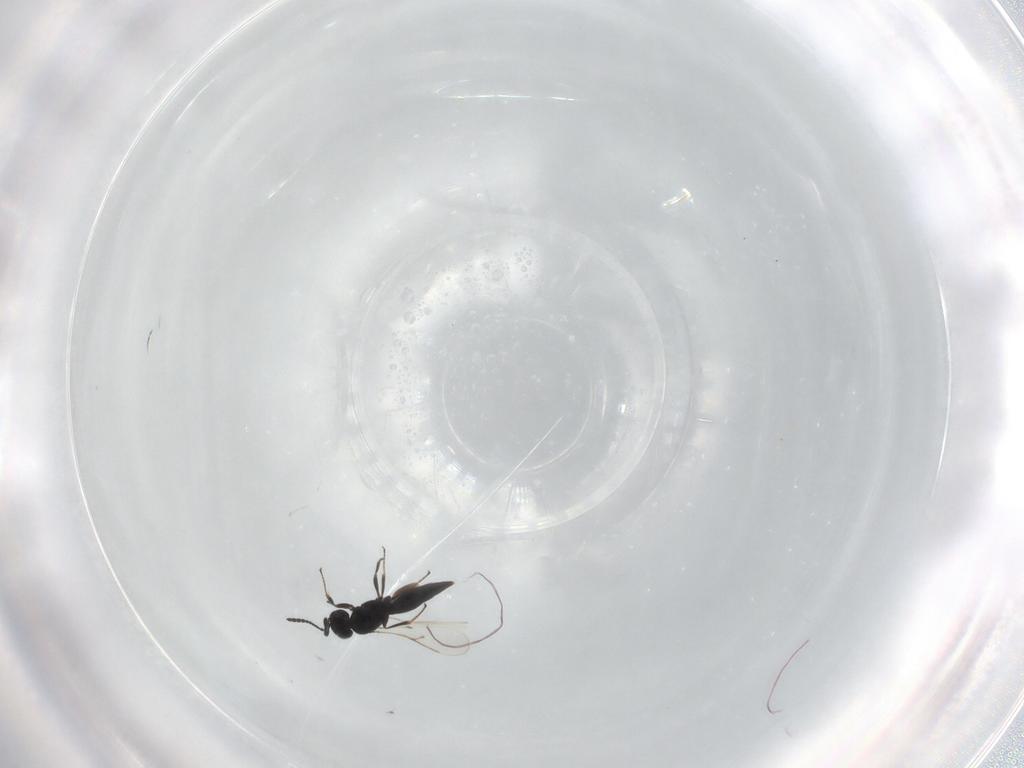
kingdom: Animalia
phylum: Arthropoda
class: Insecta
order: Hymenoptera
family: Scelionidae
